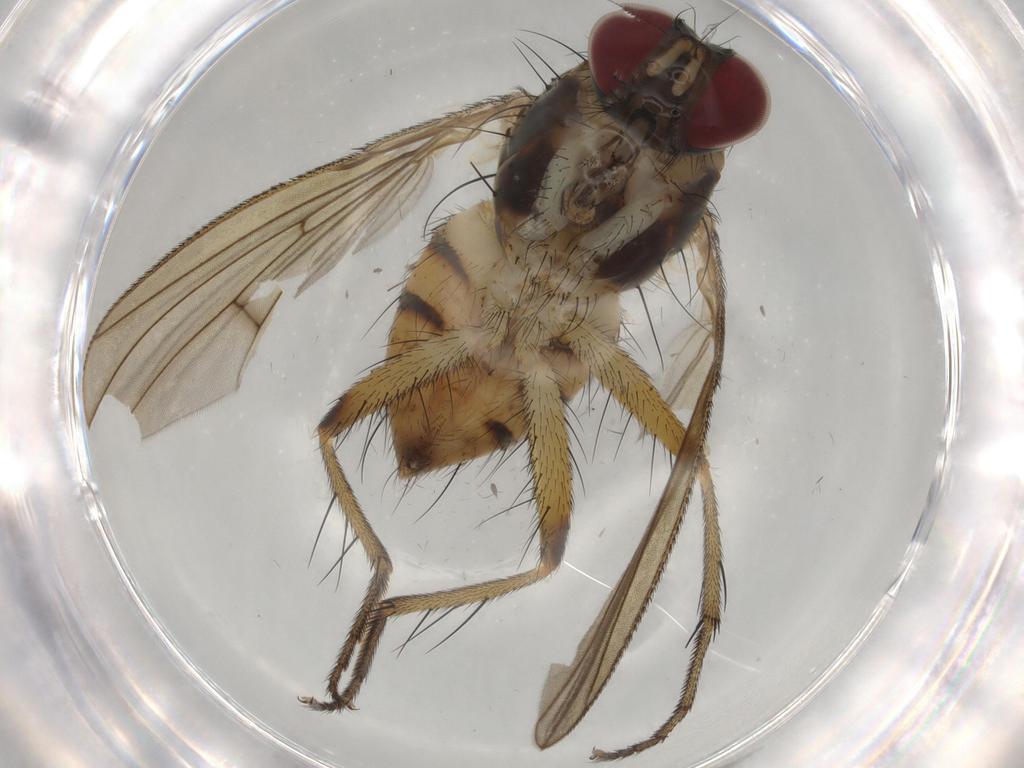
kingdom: Animalia
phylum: Arthropoda
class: Insecta
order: Diptera
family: Muscidae
